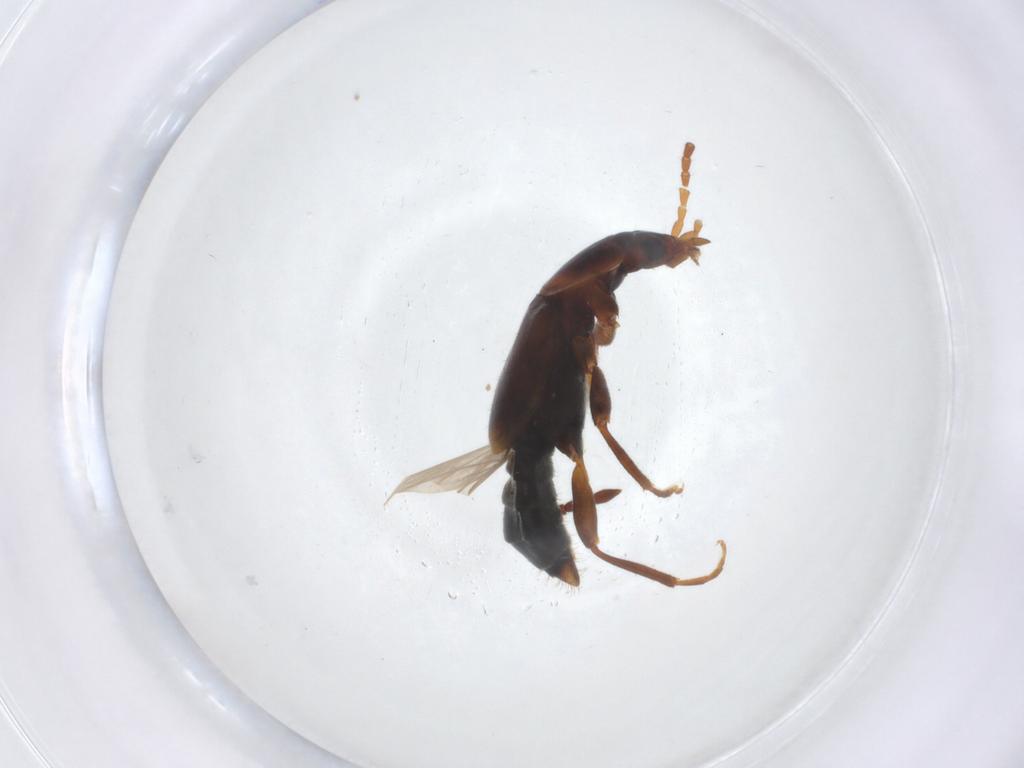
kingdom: Animalia
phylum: Arthropoda
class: Insecta
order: Coleoptera
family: Staphylinidae
